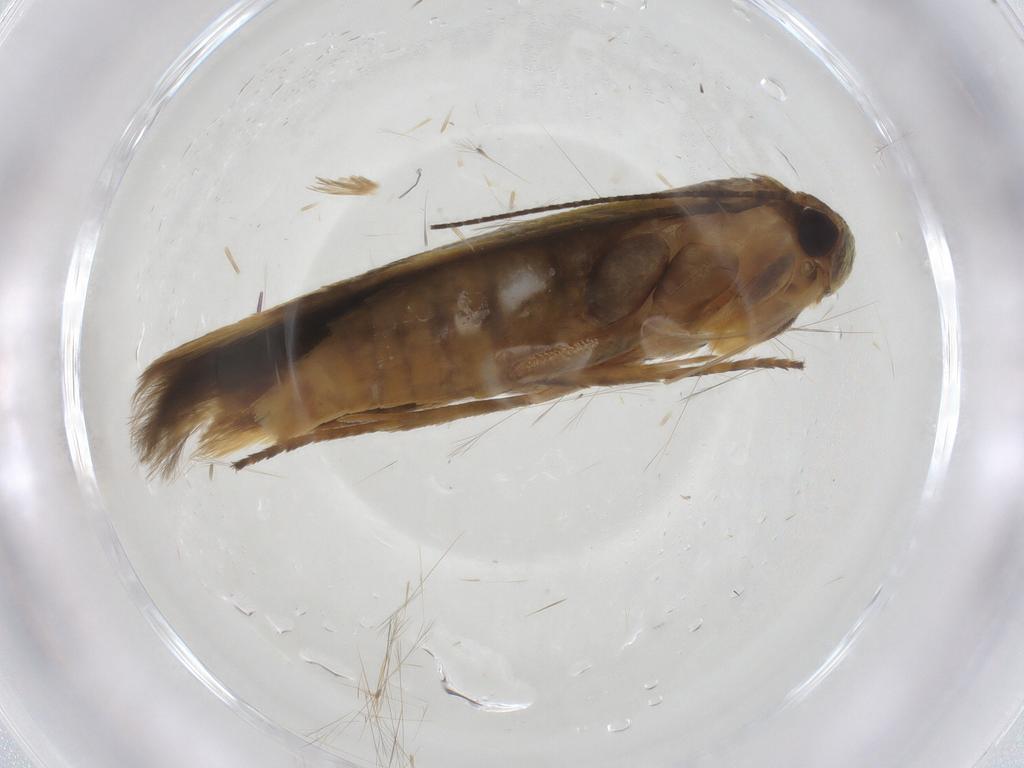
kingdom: Animalia
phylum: Arthropoda
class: Insecta
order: Lepidoptera
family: Stathmopodidae
